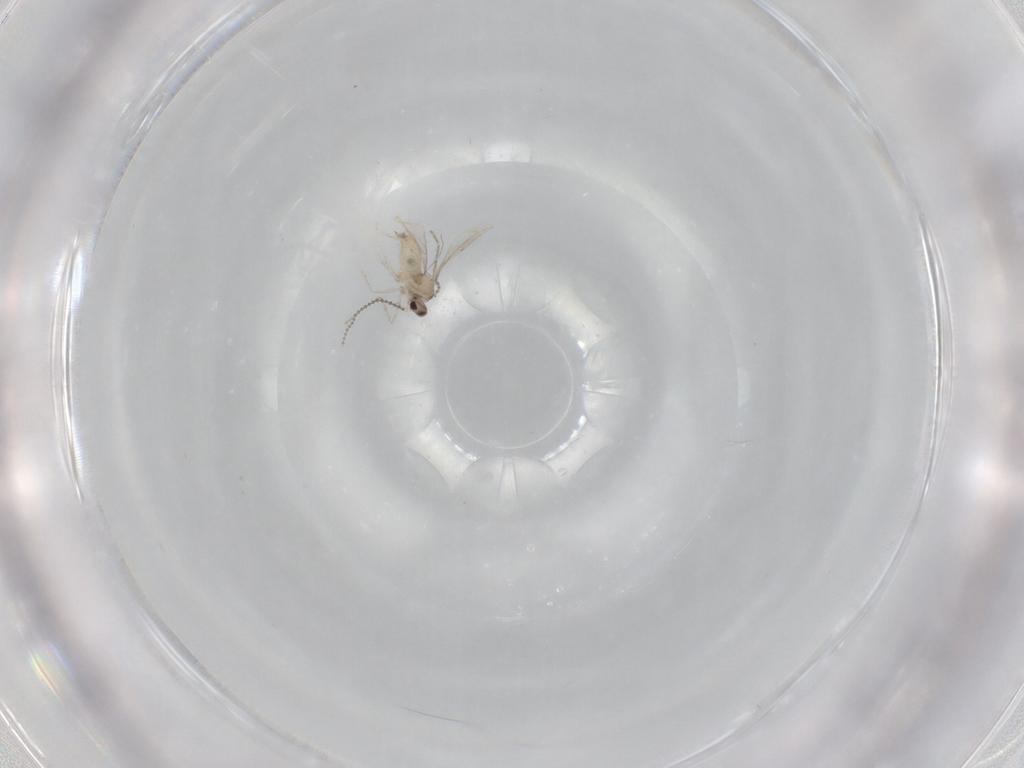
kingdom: Animalia
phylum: Arthropoda
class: Insecta
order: Diptera
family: Cecidomyiidae
